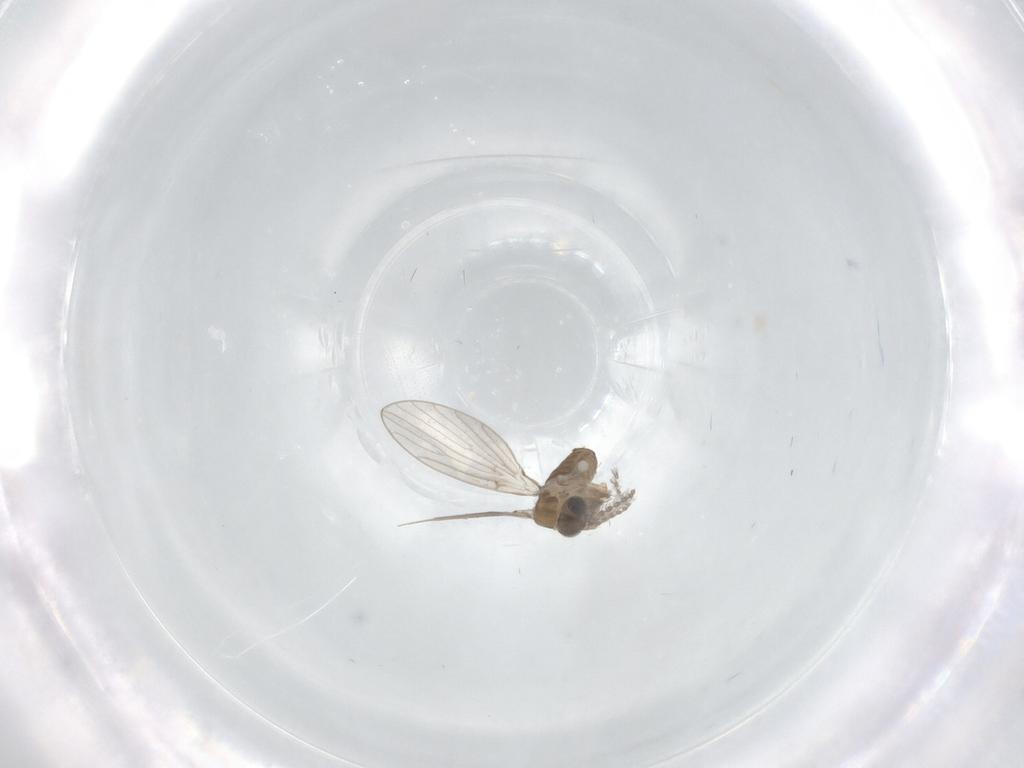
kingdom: Animalia
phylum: Arthropoda
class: Insecta
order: Diptera
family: Psychodidae
